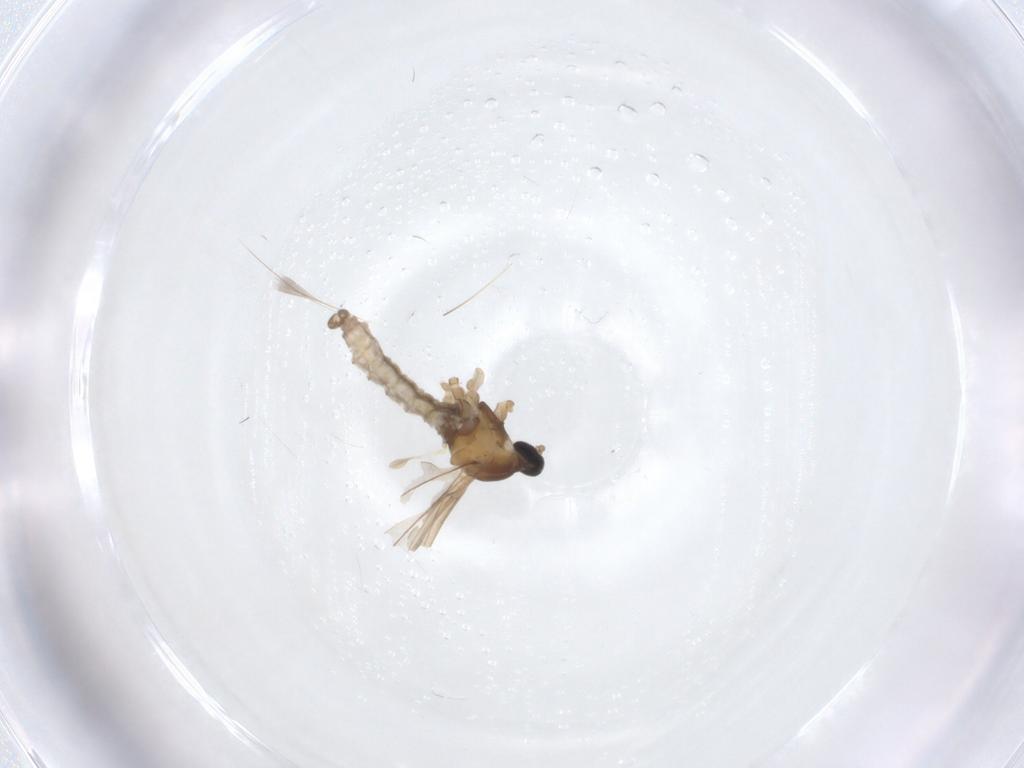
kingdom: Animalia
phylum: Arthropoda
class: Insecta
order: Diptera
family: Cecidomyiidae
